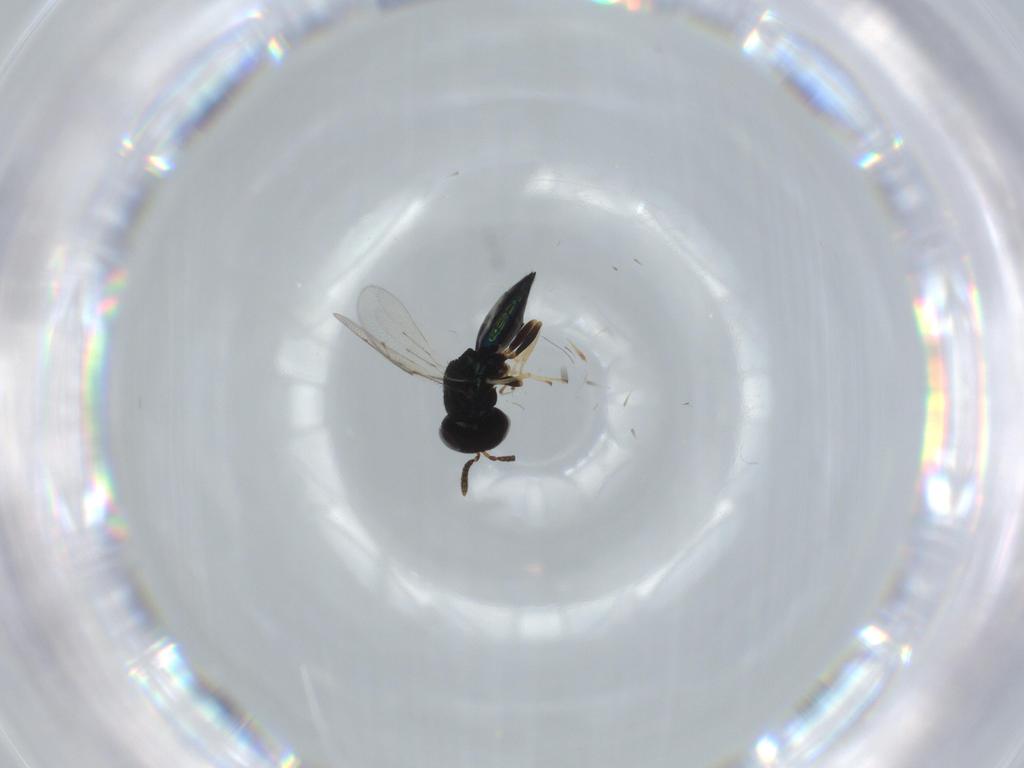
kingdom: Animalia
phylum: Arthropoda
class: Insecta
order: Hymenoptera
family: Pteromalidae
